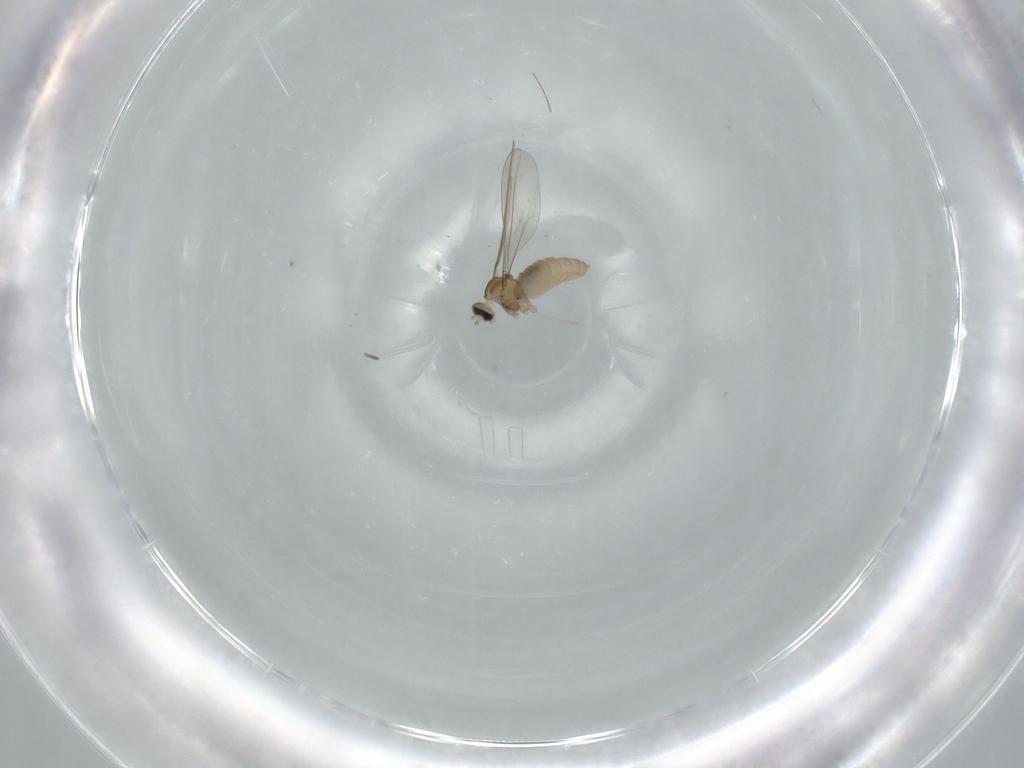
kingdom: Animalia
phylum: Arthropoda
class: Insecta
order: Diptera
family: Cecidomyiidae
